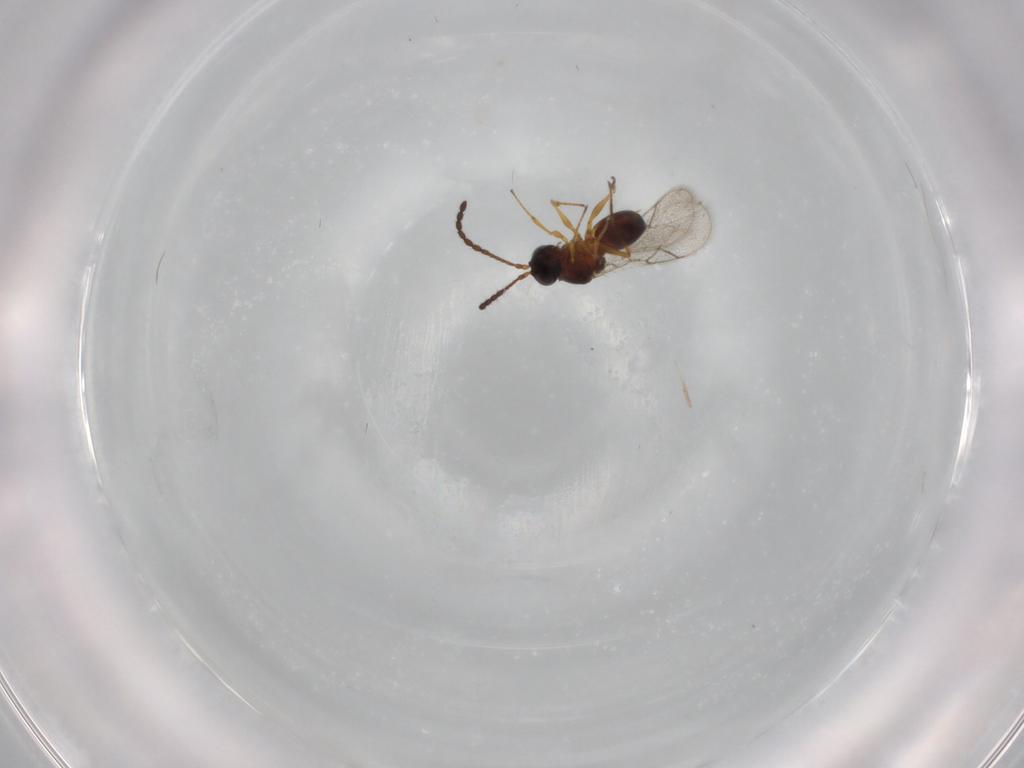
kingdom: Animalia
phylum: Arthropoda
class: Insecta
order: Hymenoptera
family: Figitidae
